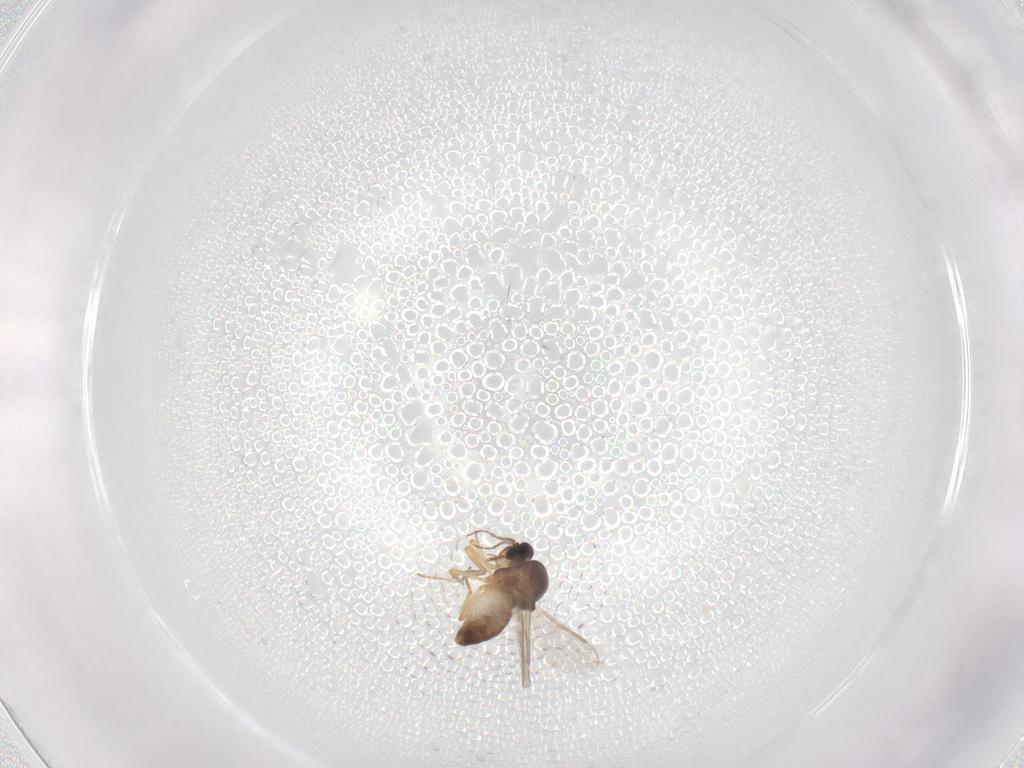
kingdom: Animalia
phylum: Arthropoda
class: Insecta
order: Diptera
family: Ceratopogonidae
